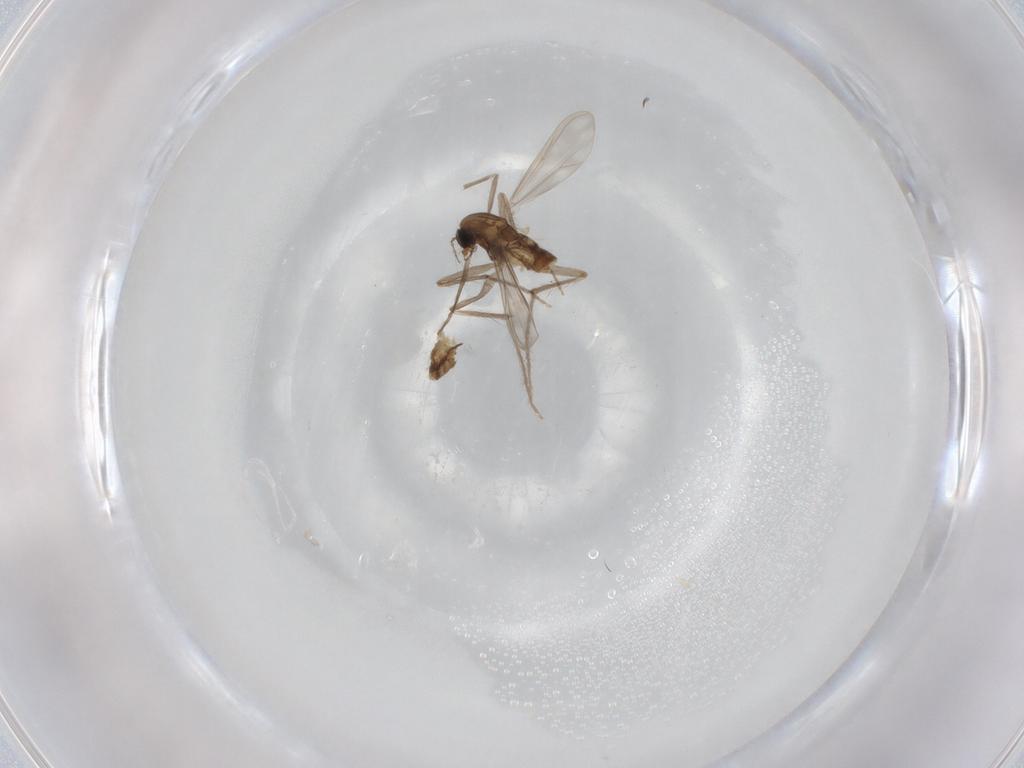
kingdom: Animalia
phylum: Arthropoda
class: Insecta
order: Diptera
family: Chironomidae
